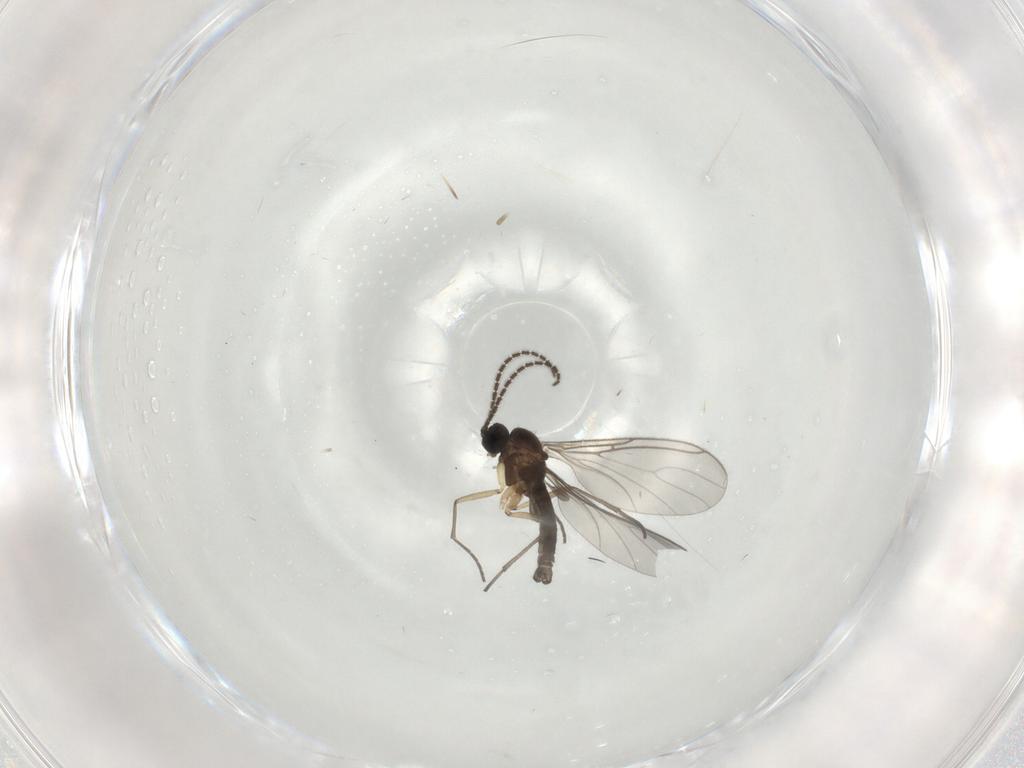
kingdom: Animalia
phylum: Arthropoda
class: Insecta
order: Diptera
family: Sciaridae
